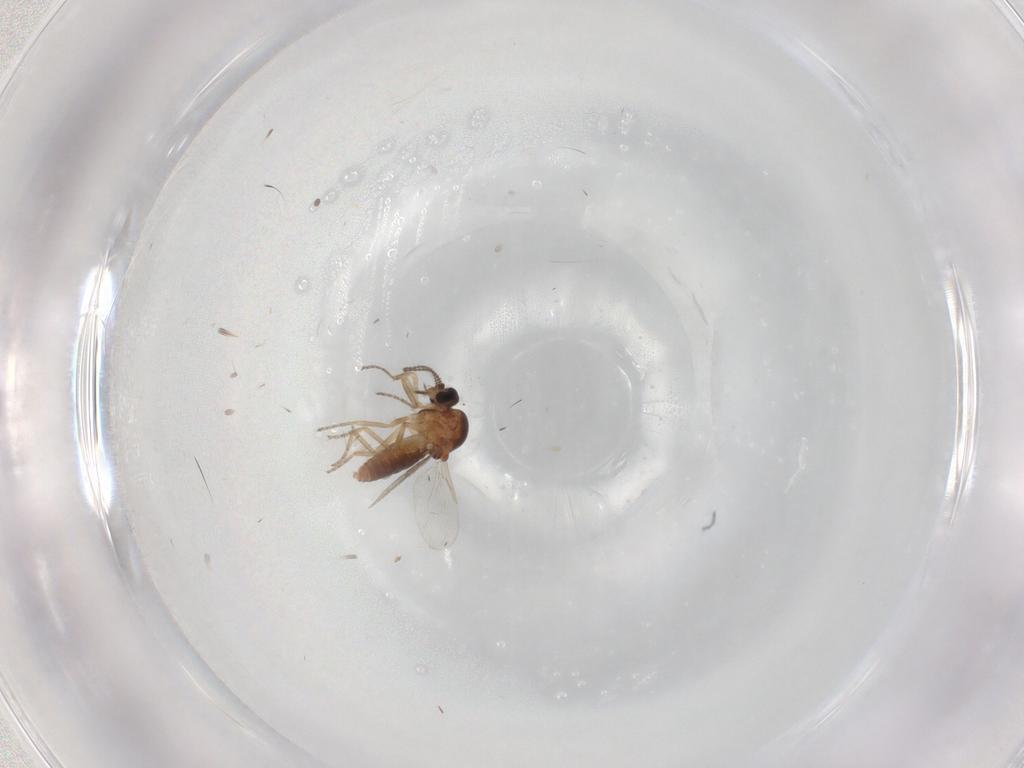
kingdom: Animalia
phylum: Arthropoda
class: Insecta
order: Diptera
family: Ceratopogonidae
